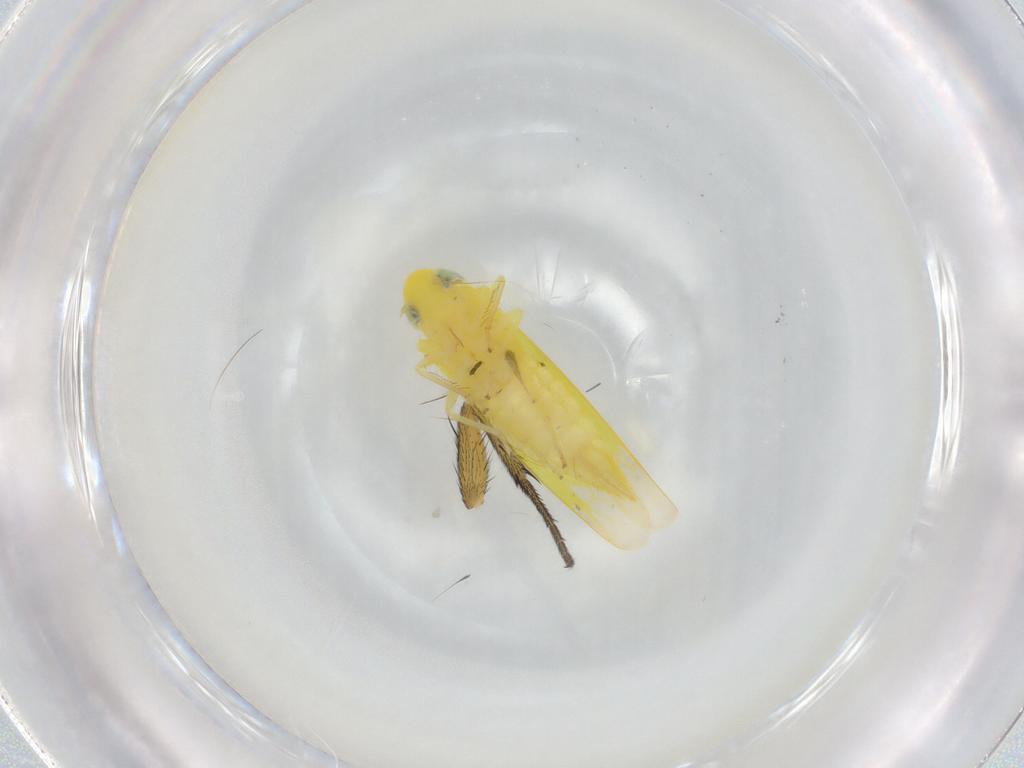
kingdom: Animalia
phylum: Arthropoda
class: Insecta
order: Hemiptera
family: Cicadellidae
